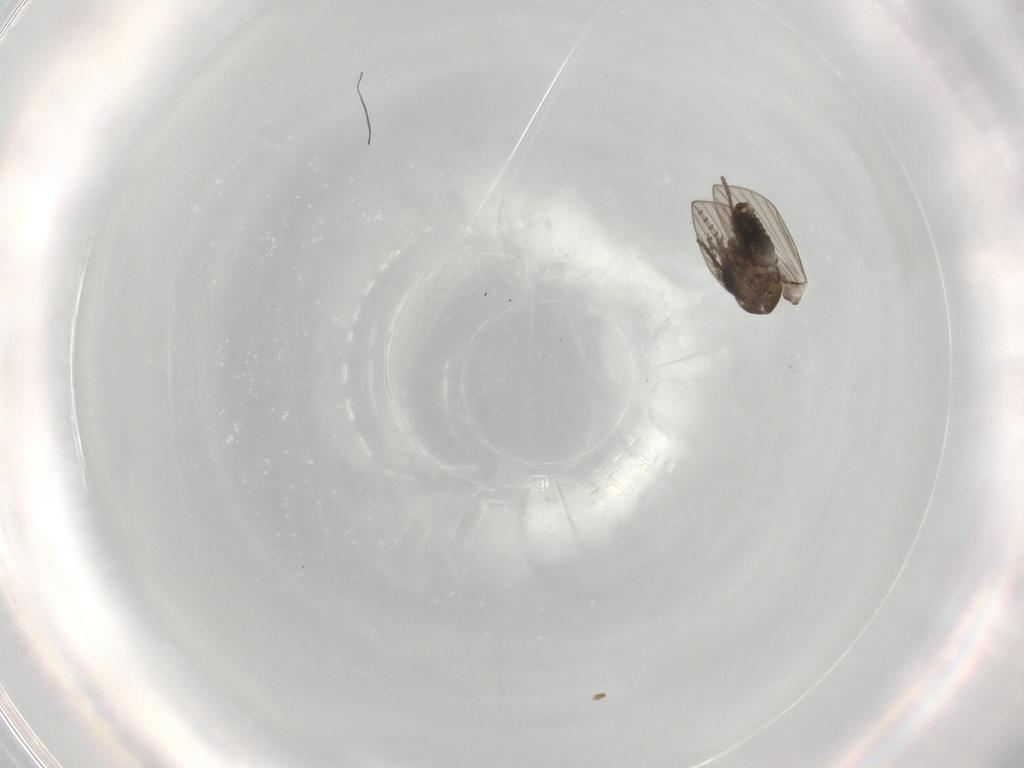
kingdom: Animalia
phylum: Arthropoda
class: Insecta
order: Diptera
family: Psychodidae
